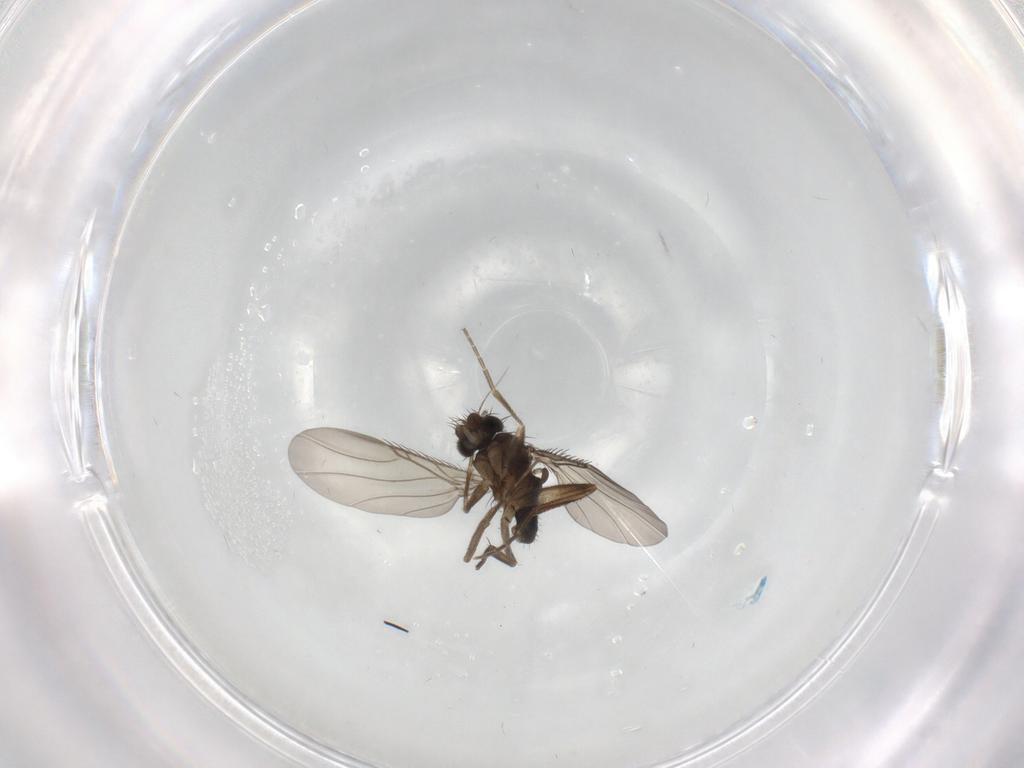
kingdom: Animalia
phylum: Arthropoda
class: Insecta
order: Diptera
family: Phoridae
